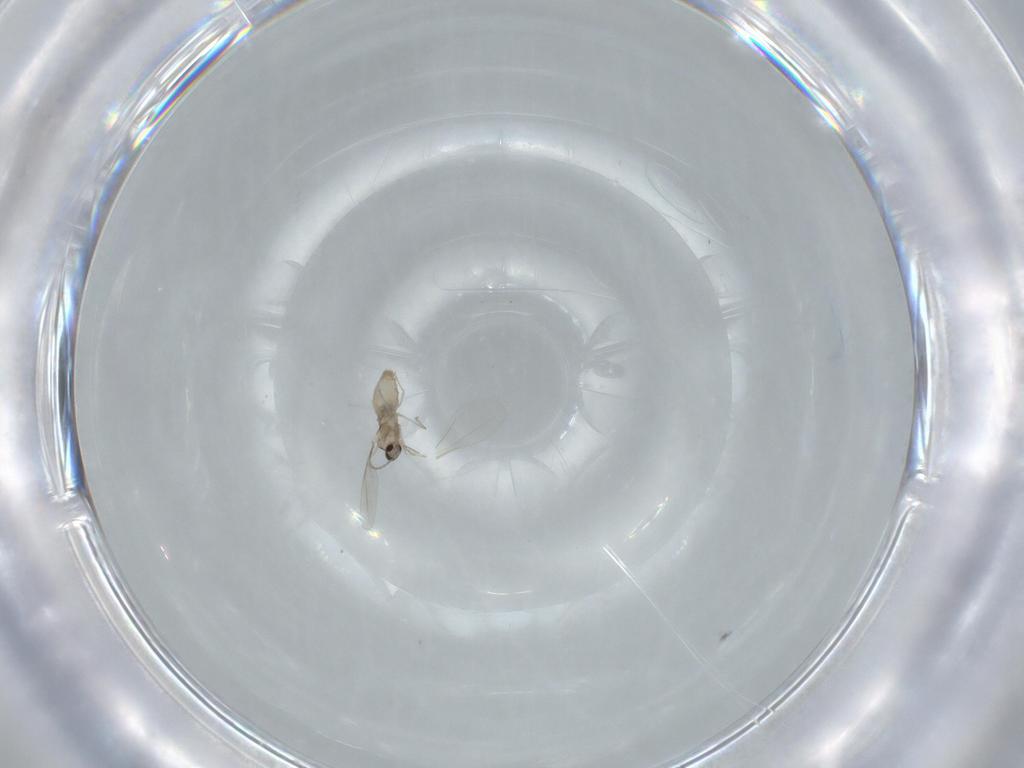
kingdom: Animalia
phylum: Arthropoda
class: Insecta
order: Diptera
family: Cecidomyiidae
